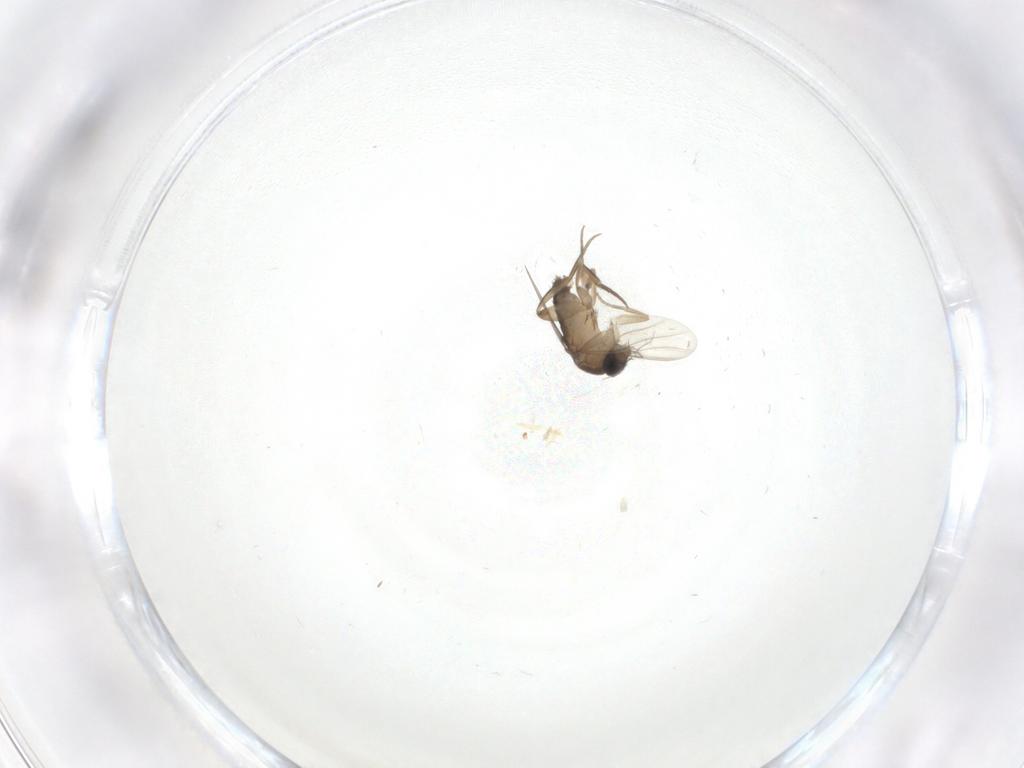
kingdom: Animalia
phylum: Arthropoda
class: Insecta
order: Diptera
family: Phoridae
